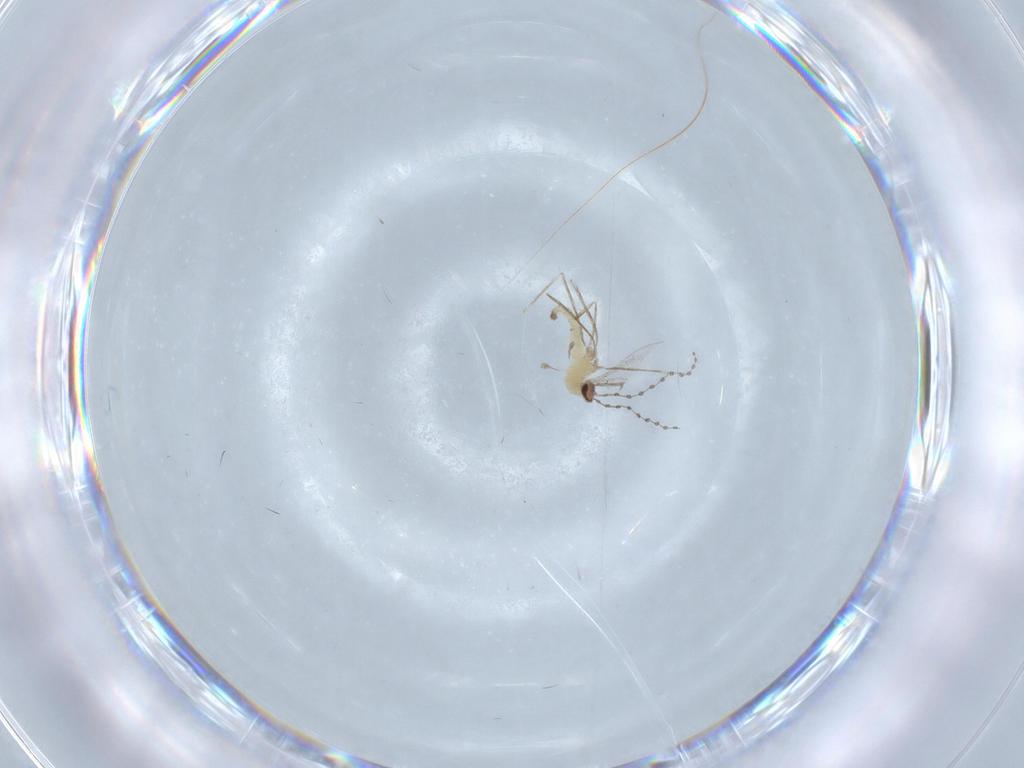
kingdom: Animalia
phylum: Arthropoda
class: Insecta
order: Diptera
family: Cecidomyiidae
